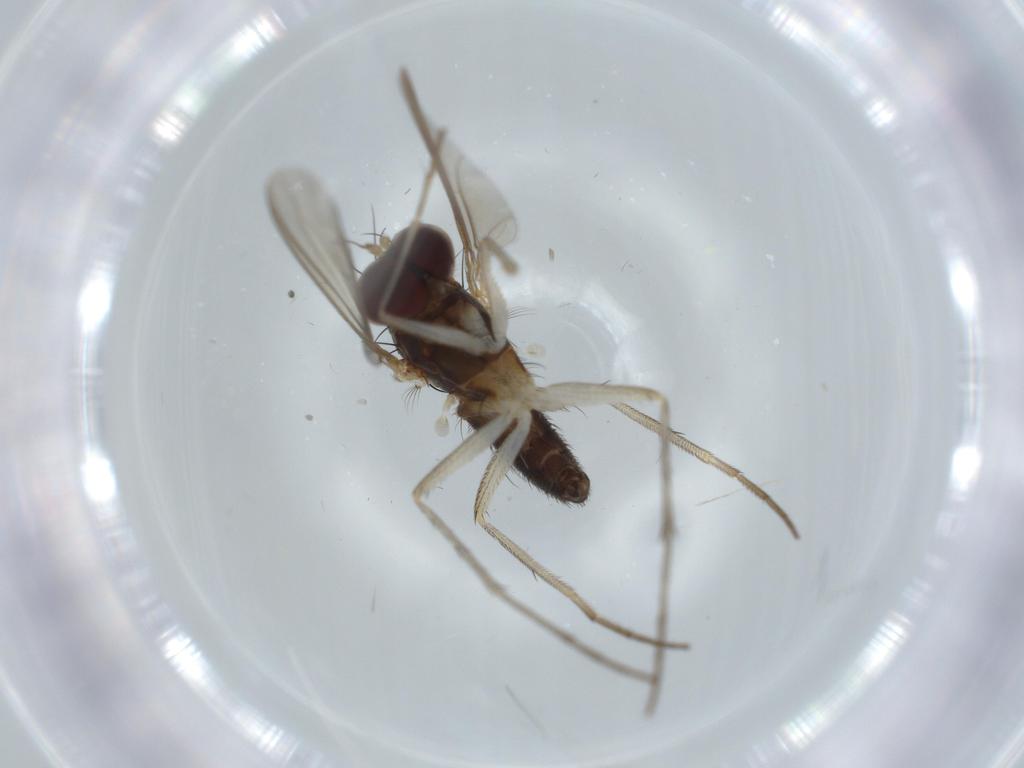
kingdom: Animalia
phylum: Arthropoda
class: Insecta
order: Diptera
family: Dolichopodidae
